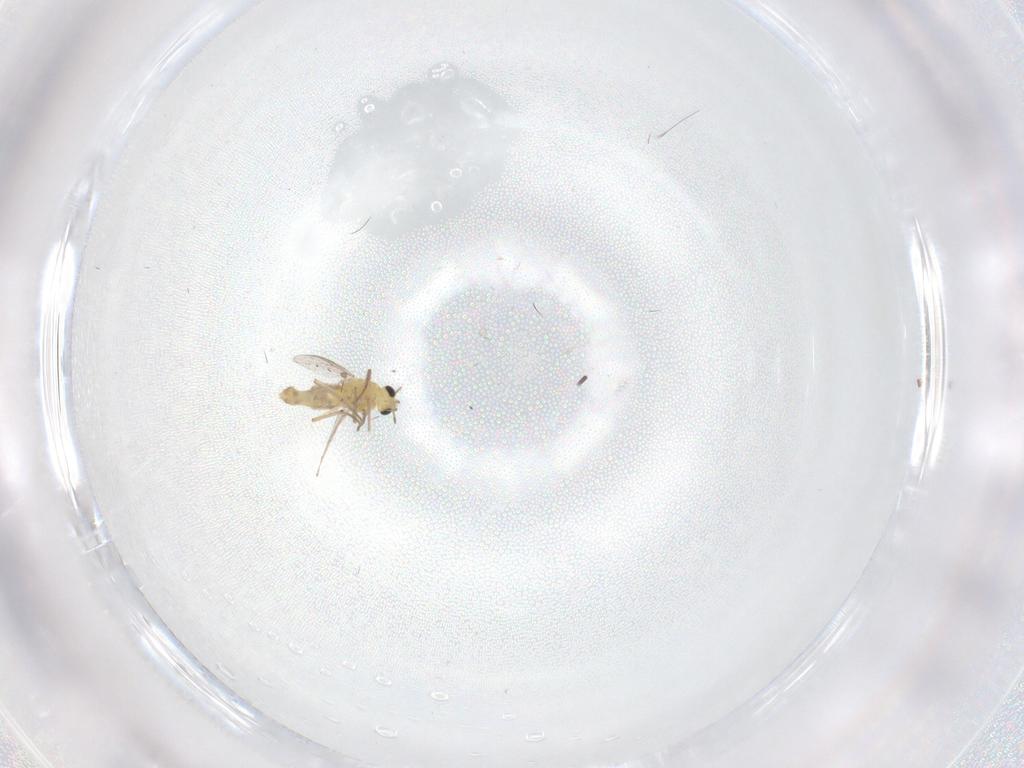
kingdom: Animalia
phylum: Arthropoda
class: Insecta
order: Diptera
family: Chironomidae
